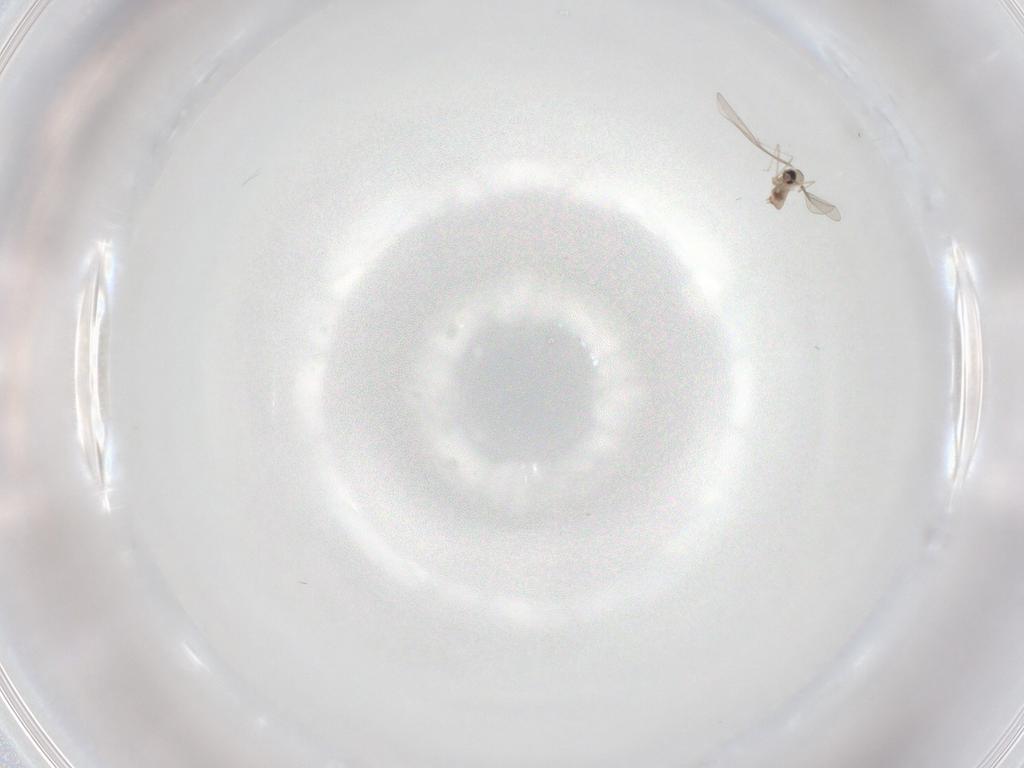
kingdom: Animalia
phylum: Arthropoda
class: Insecta
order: Diptera
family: Cecidomyiidae
